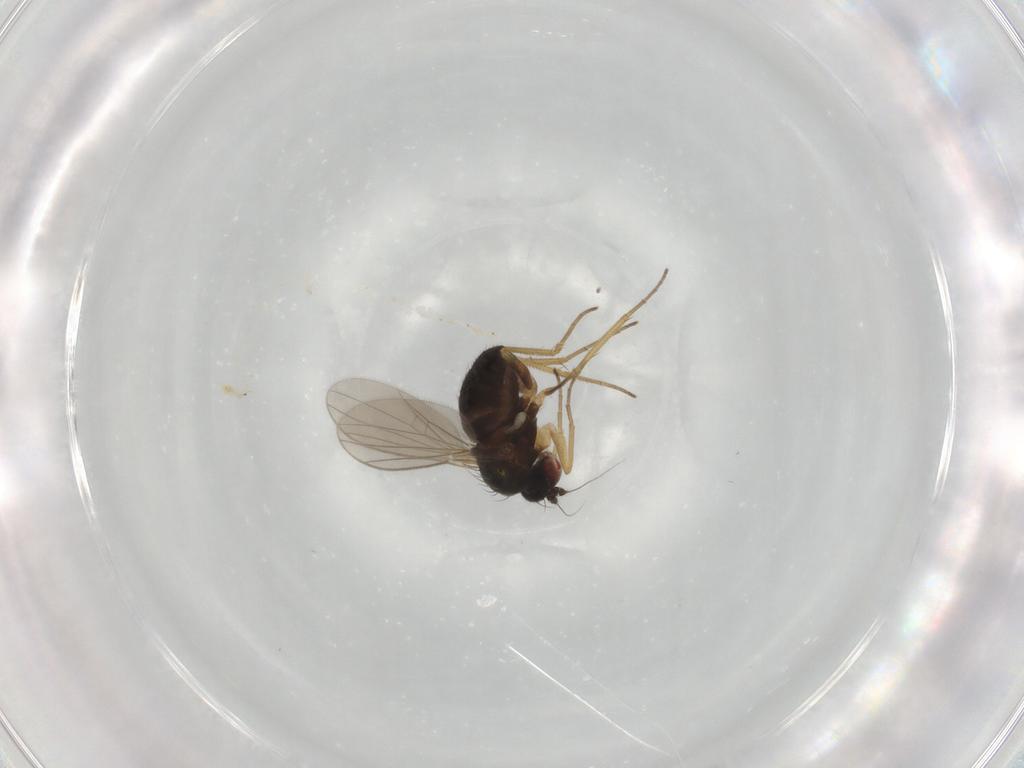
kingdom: Animalia
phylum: Arthropoda
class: Insecta
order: Diptera
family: Dolichopodidae
